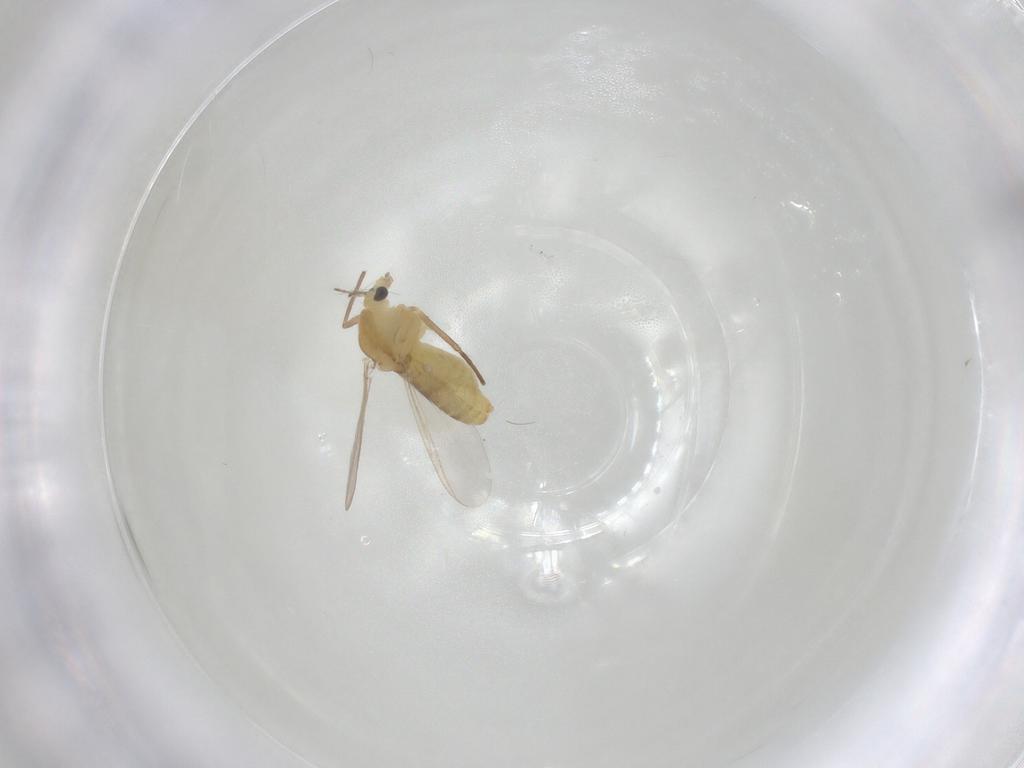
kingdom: Animalia
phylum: Arthropoda
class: Insecta
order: Diptera
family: Chironomidae
